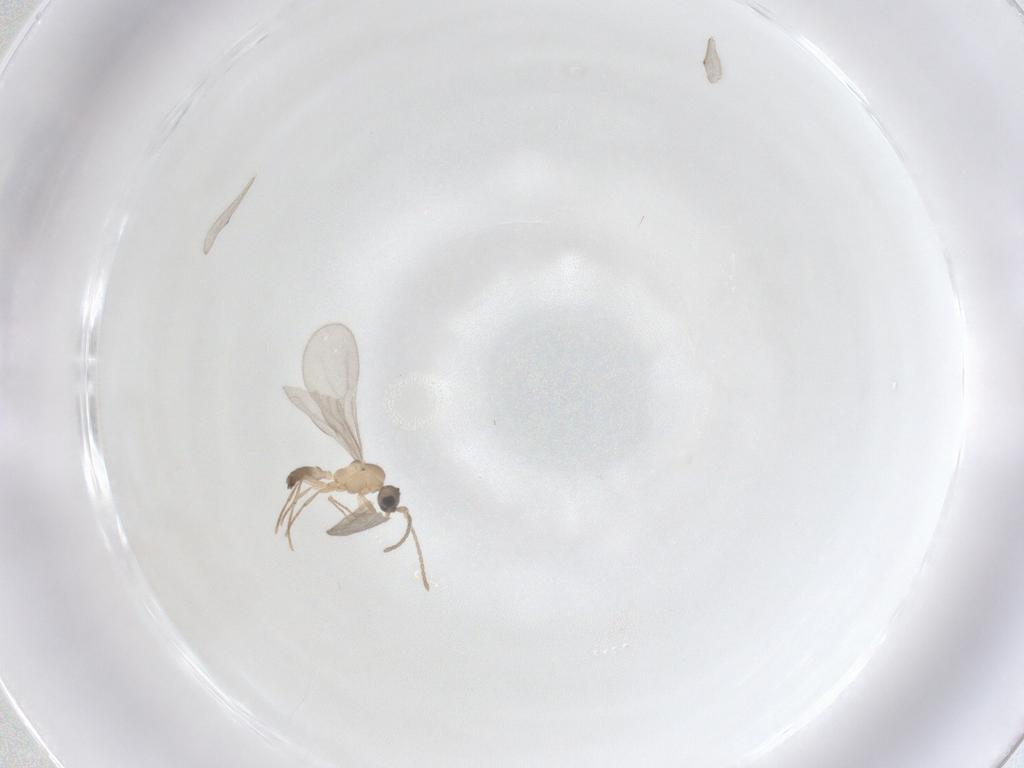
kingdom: Animalia
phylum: Arthropoda
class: Insecta
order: Hymenoptera
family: Formicidae
